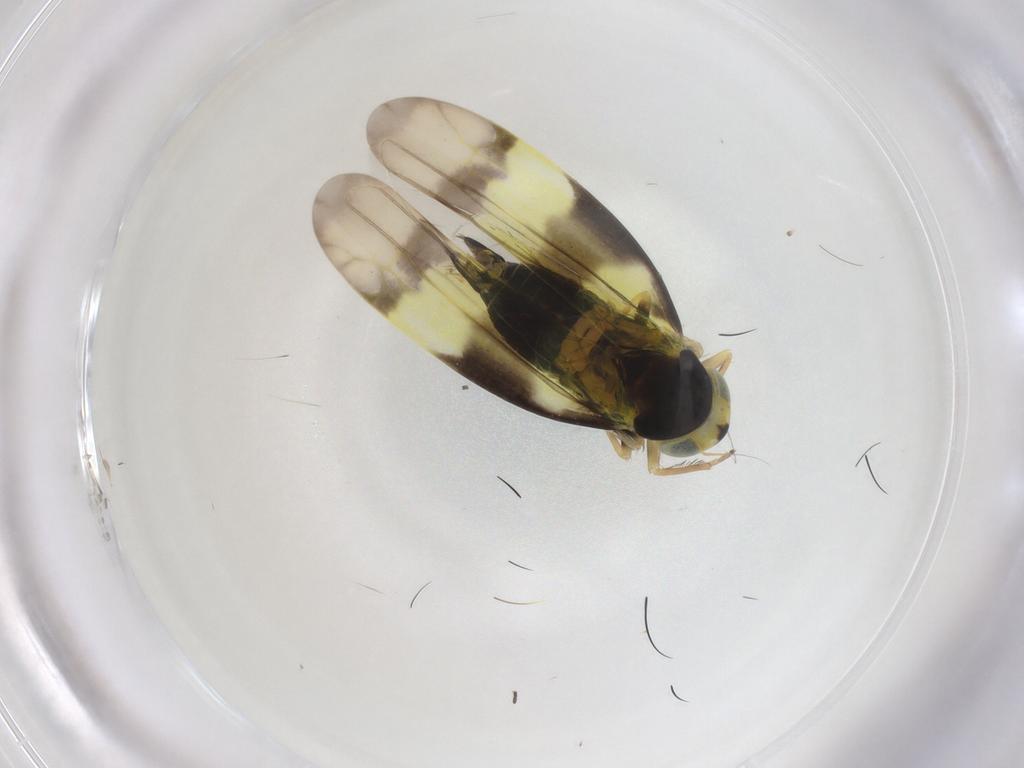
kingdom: Animalia
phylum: Arthropoda
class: Insecta
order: Hemiptera
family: Cicadellidae
